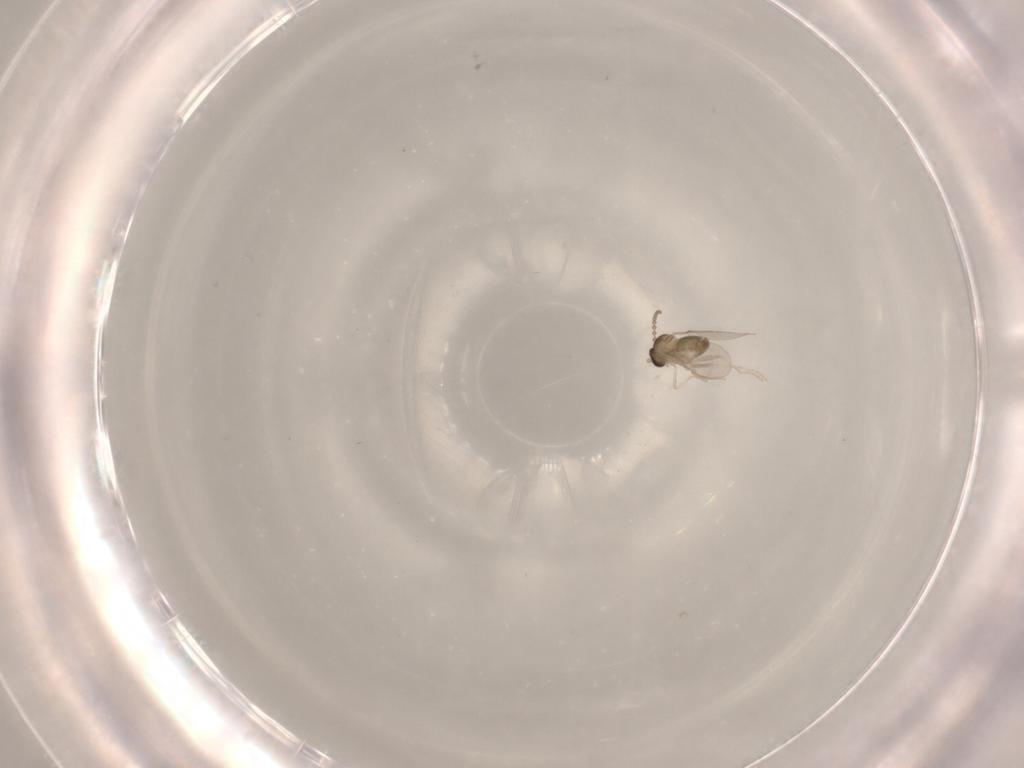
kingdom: Animalia
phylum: Arthropoda
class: Insecta
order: Diptera
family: Cecidomyiidae
